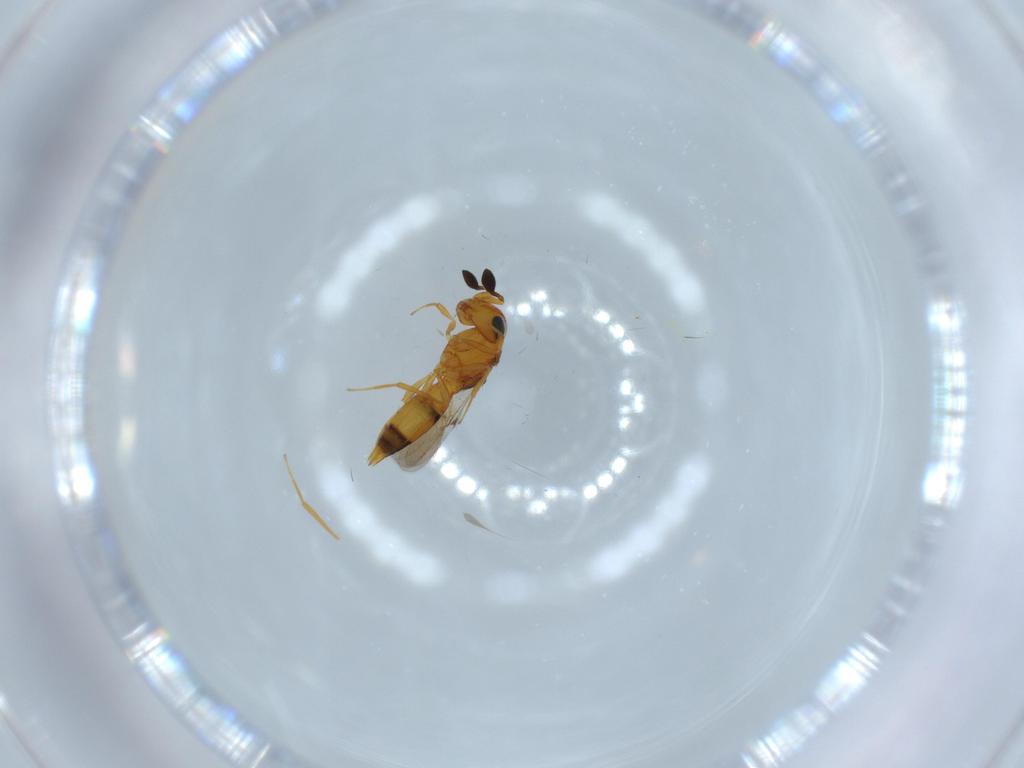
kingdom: Animalia
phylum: Arthropoda
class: Insecta
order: Hymenoptera
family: Scelionidae
